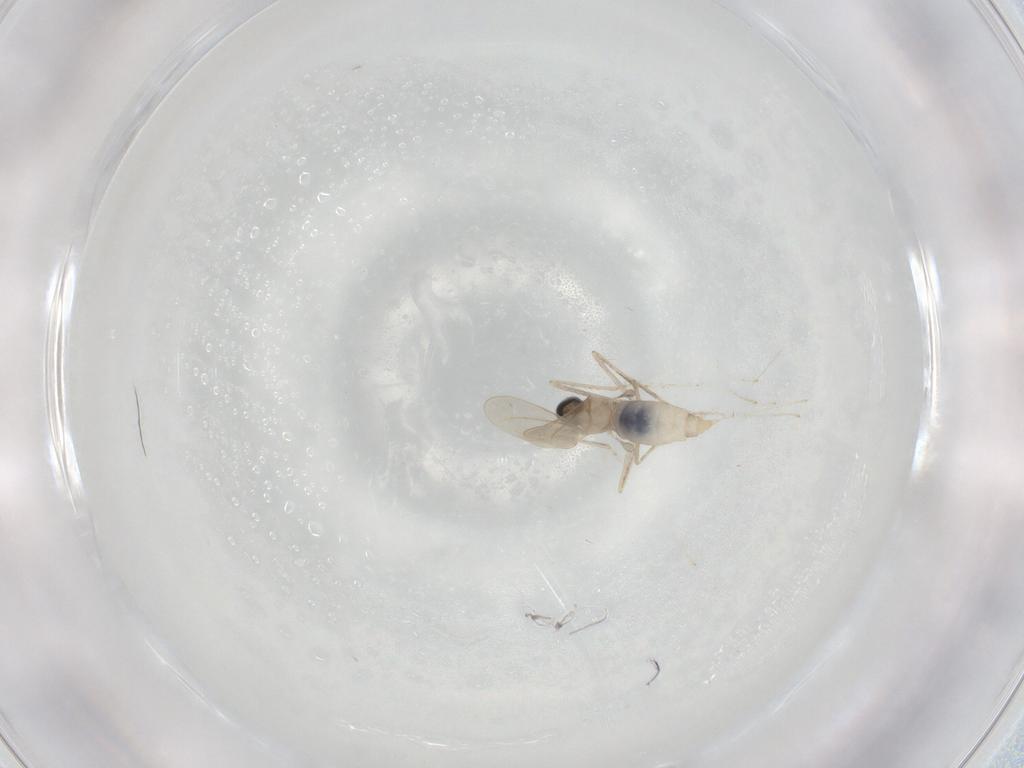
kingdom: Animalia
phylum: Arthropoda
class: Insecta
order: Diptera
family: Cecidomyiidae
